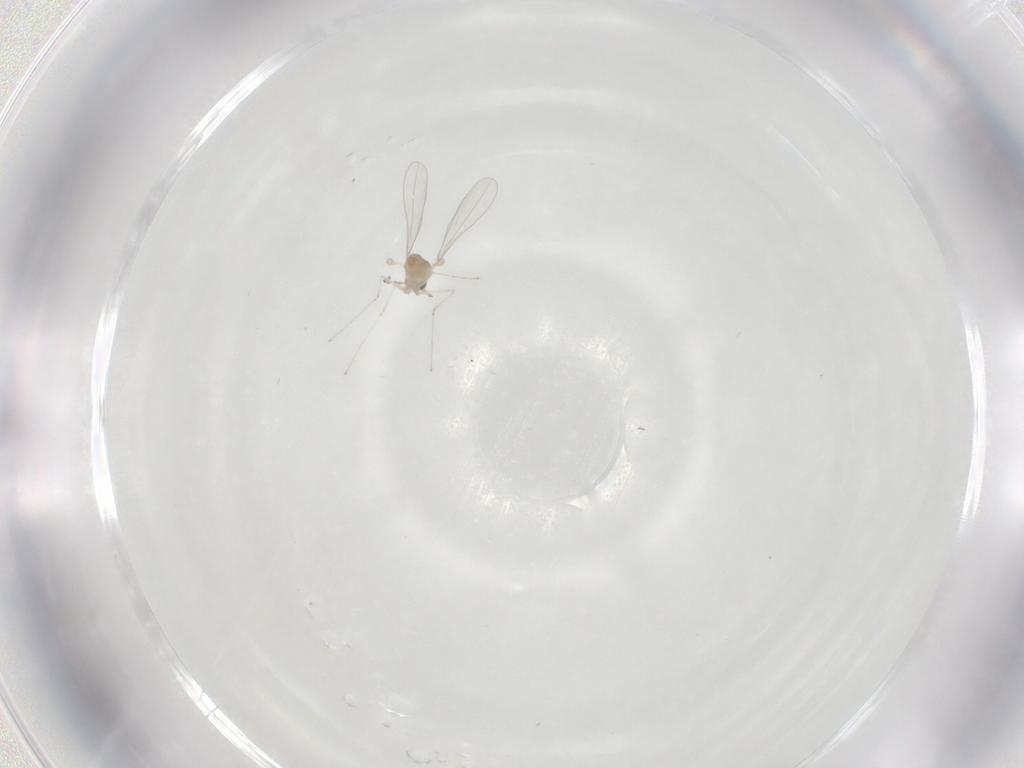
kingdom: Animalia
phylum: Arthropoda
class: Insecta
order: Diptera
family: Cecidomyiidae
